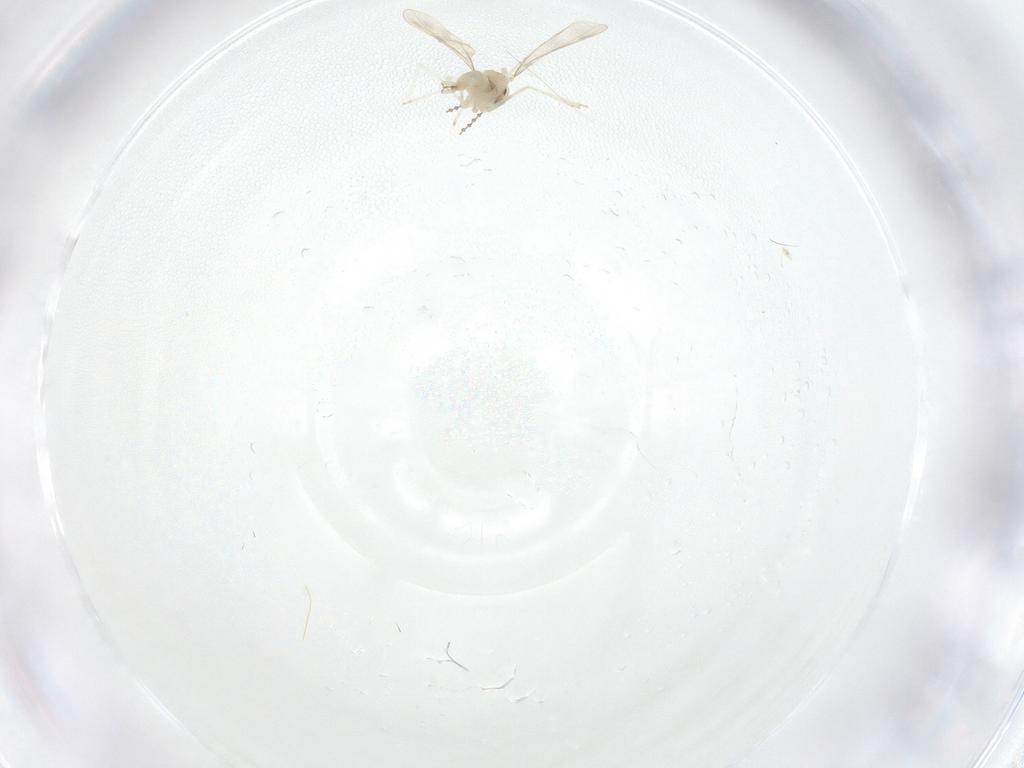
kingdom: Animalia
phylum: Arthropoda
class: Insecta
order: Diptera
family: Cecidomyiidae
